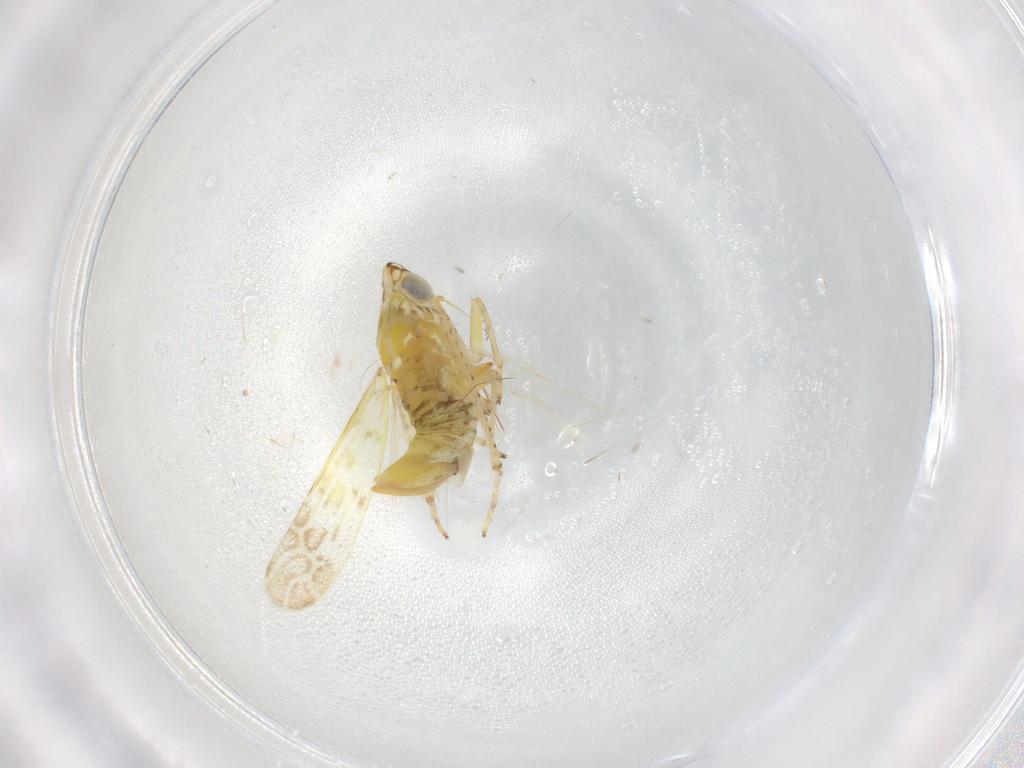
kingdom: Animalia
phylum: Arthropoda
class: Insecta
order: Hemiptera
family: Cicadellidae
